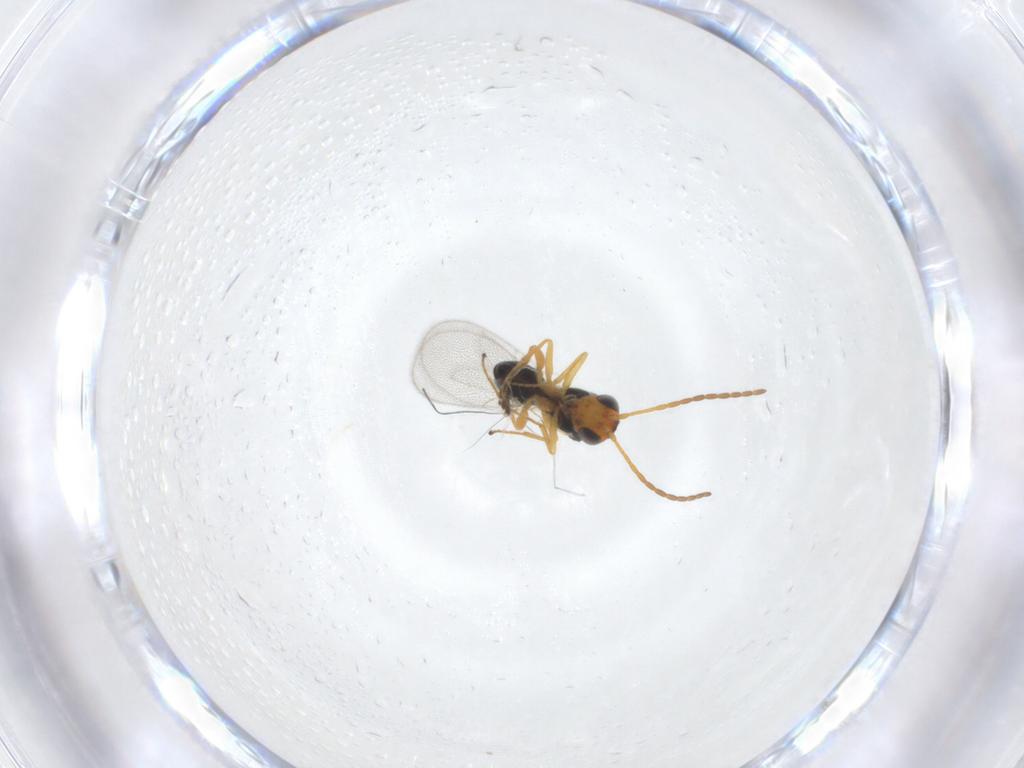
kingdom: Animalia
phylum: Arthropoda
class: Insecta
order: Hymenoptera
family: Figitidae
